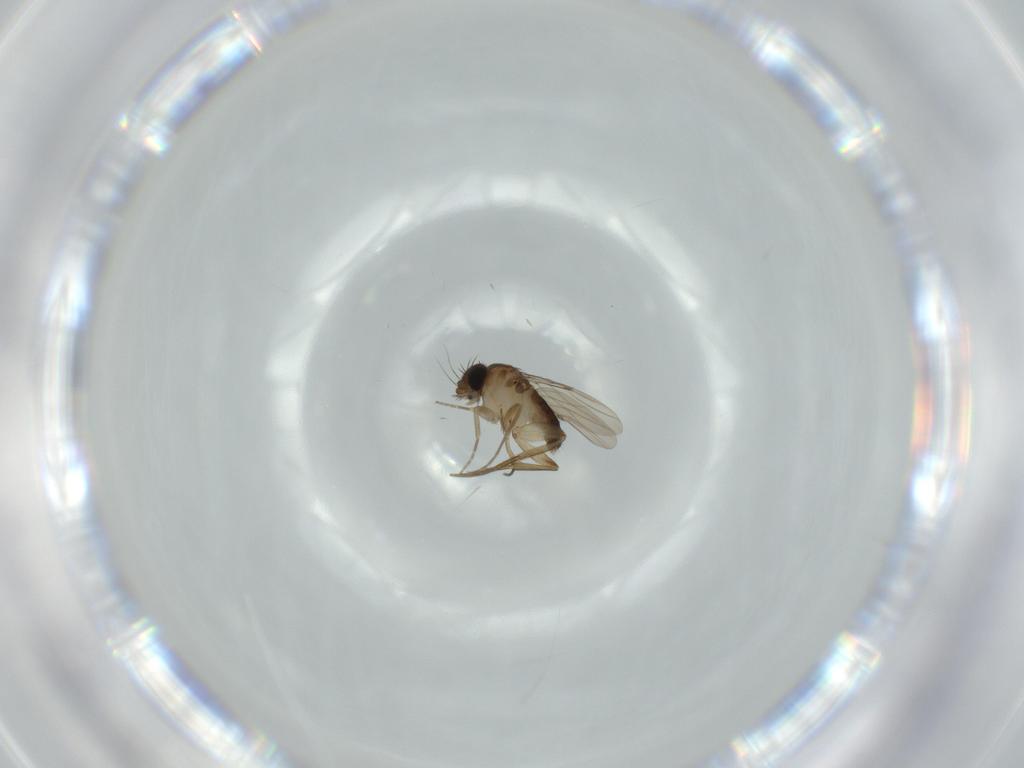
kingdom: Animalia
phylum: Arthropoda
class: Insecta
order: Diptera
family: Phoridae
